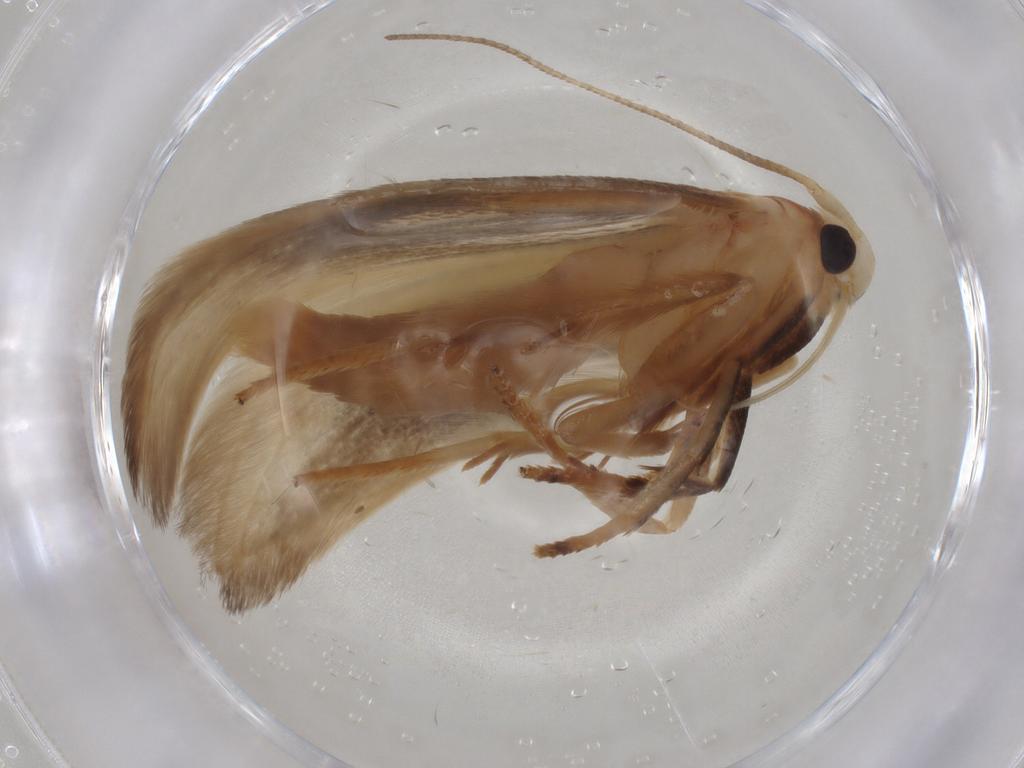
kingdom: Animalia
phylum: Arthropoda
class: Insecta
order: Lepidoptera
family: Geometridae
